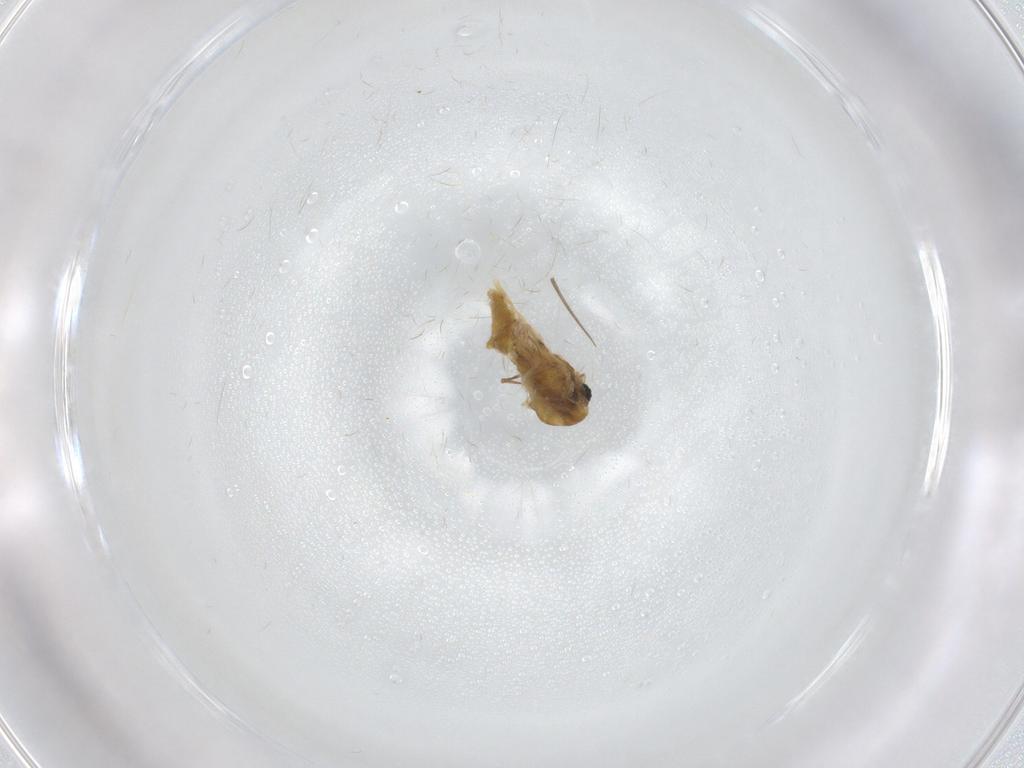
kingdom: Animalia
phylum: Arthropoda
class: Insecta
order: Diptera
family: Chironomidae
